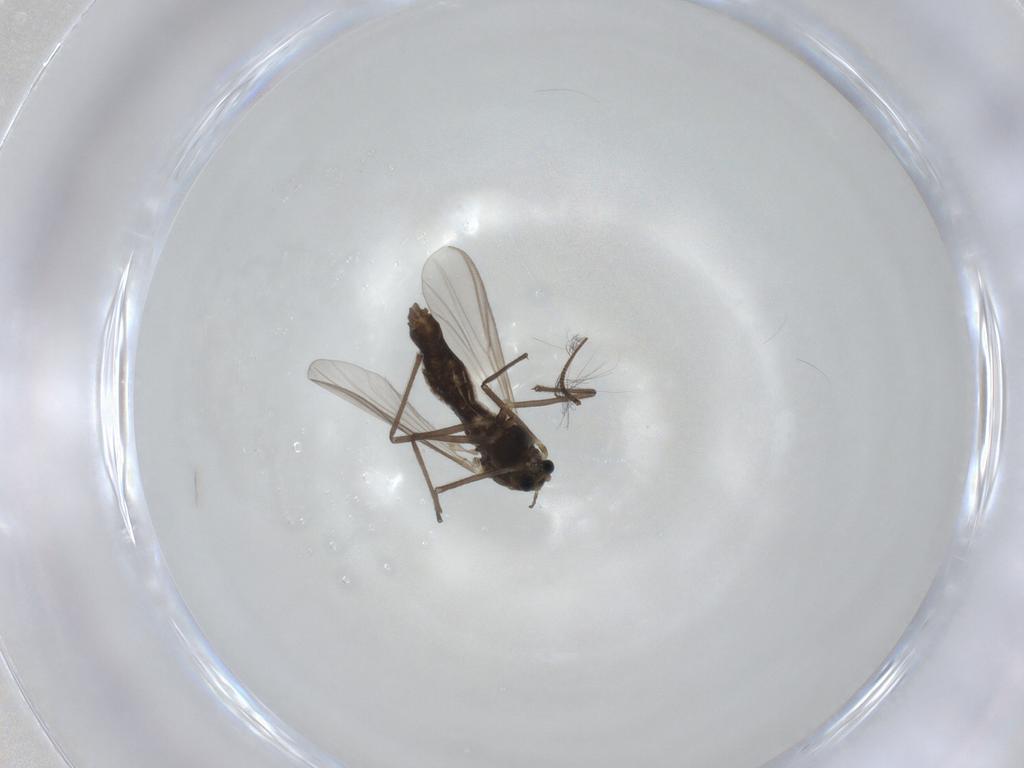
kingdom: Animalia
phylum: Arthropoda
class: Insecta
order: Diptera
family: Chironomidae
